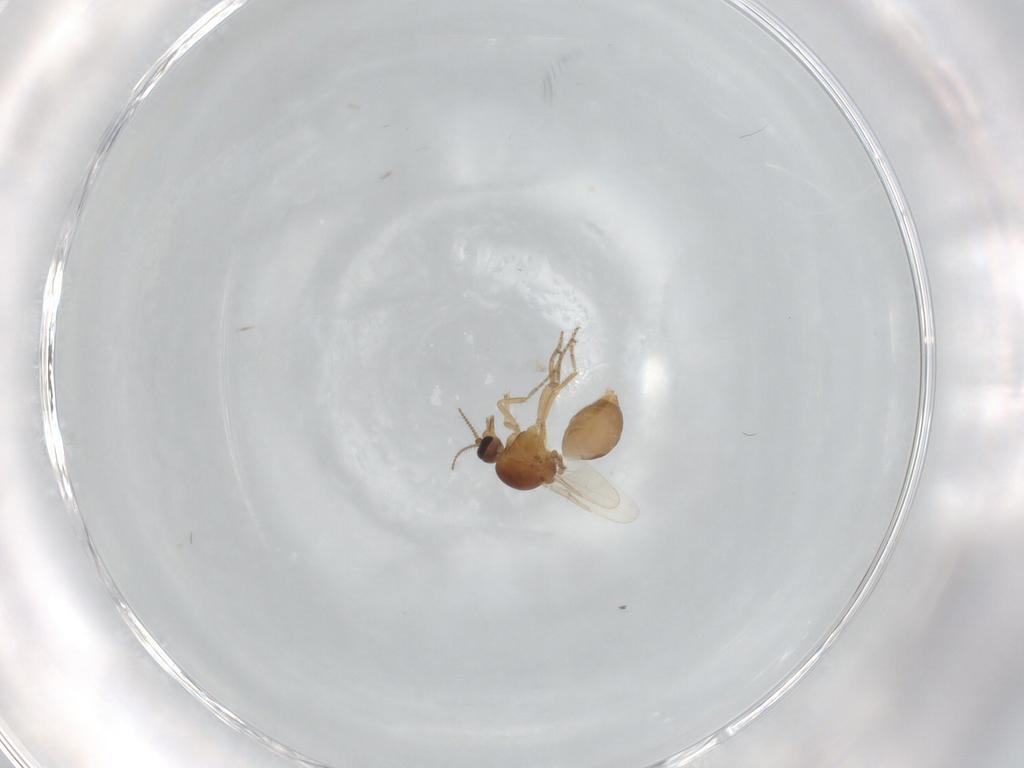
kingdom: Animalia
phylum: Arthropoda
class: Insecta
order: Diptera
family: Ceratopogonidae
